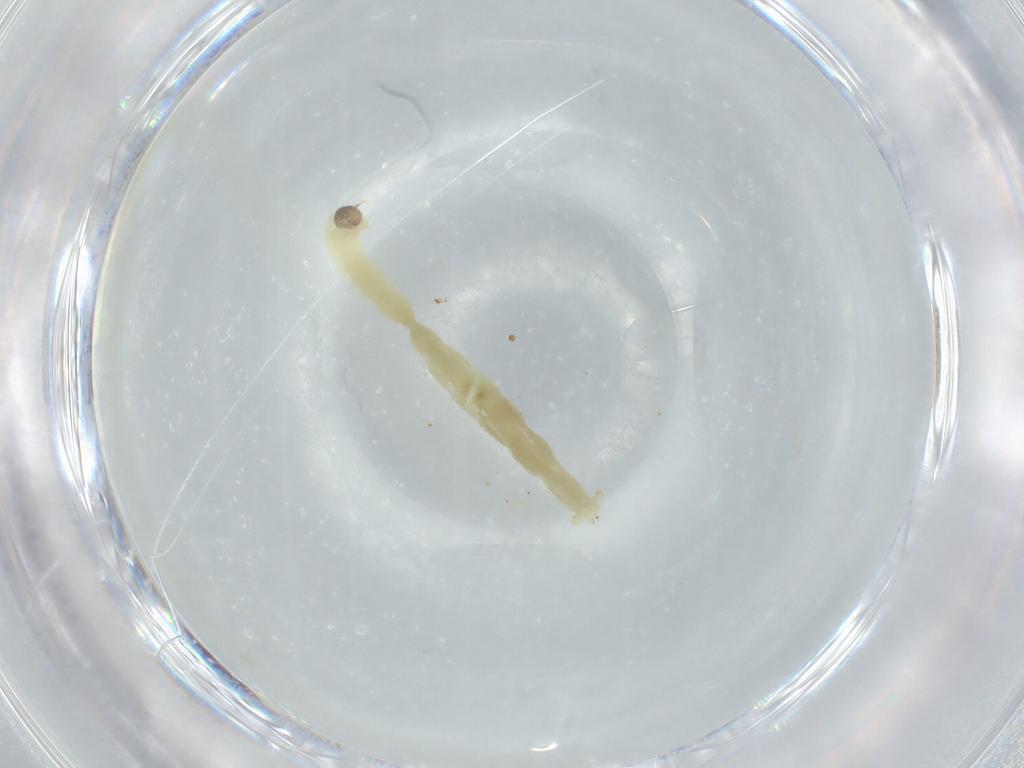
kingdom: Animalia
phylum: Arthropoda
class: Insecta
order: Diptera
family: Chironomidae
